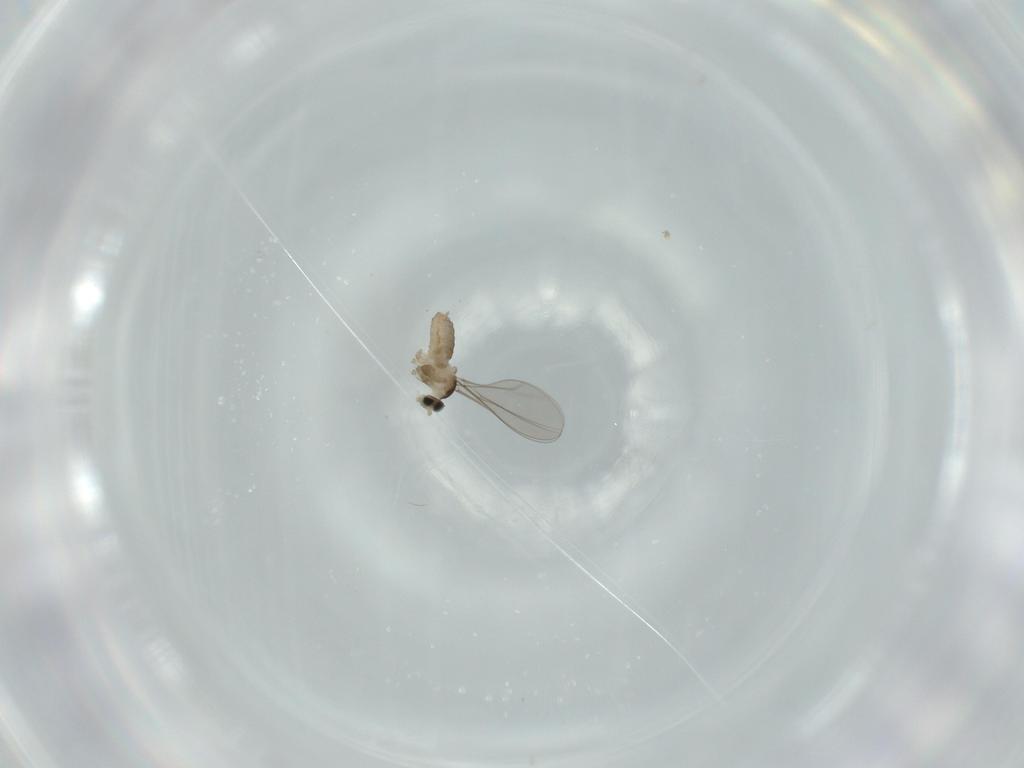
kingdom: Animalia
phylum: Arthropoda
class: Insecta
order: Diptera
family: Cecidomyiidae
